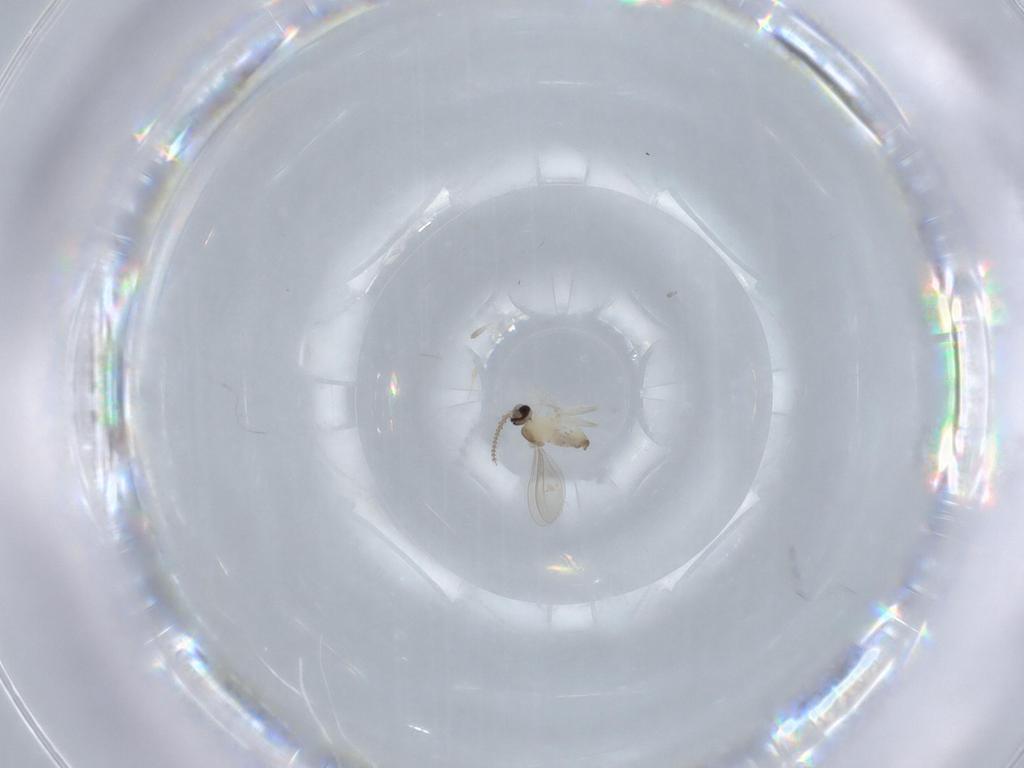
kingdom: Animalia
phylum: Arthropoda
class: Insecta
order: Diptera
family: Cecidomyiidae
